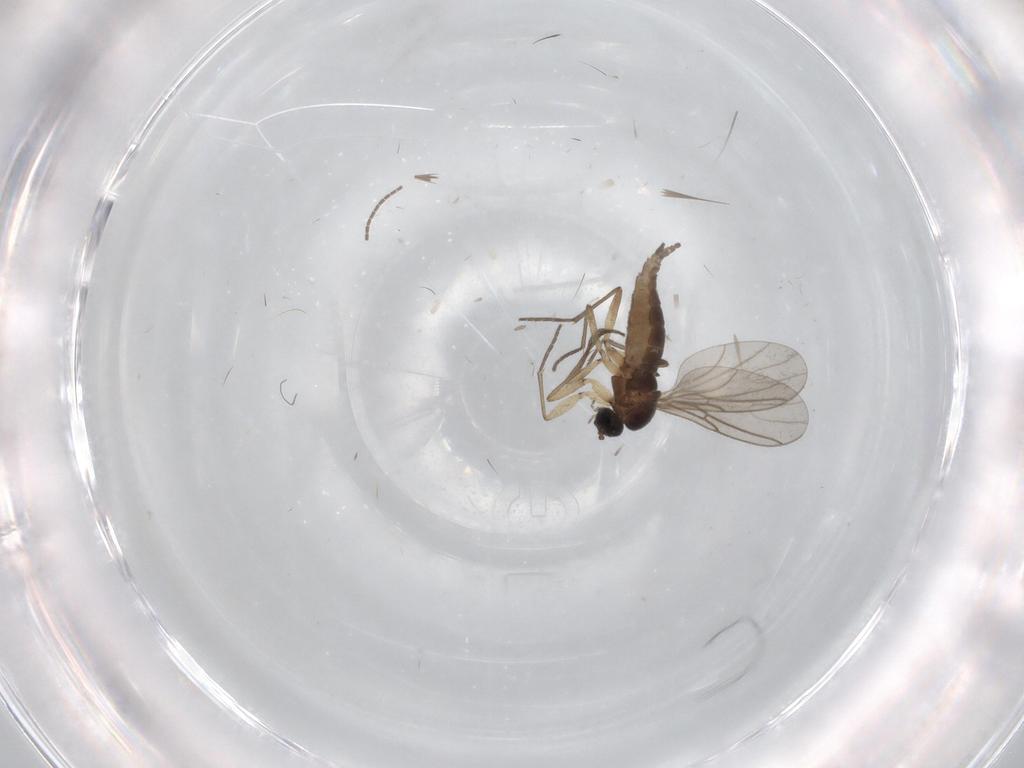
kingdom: Animalia
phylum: Arthropoda
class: Insecta
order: Diptera
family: Sciaridae
